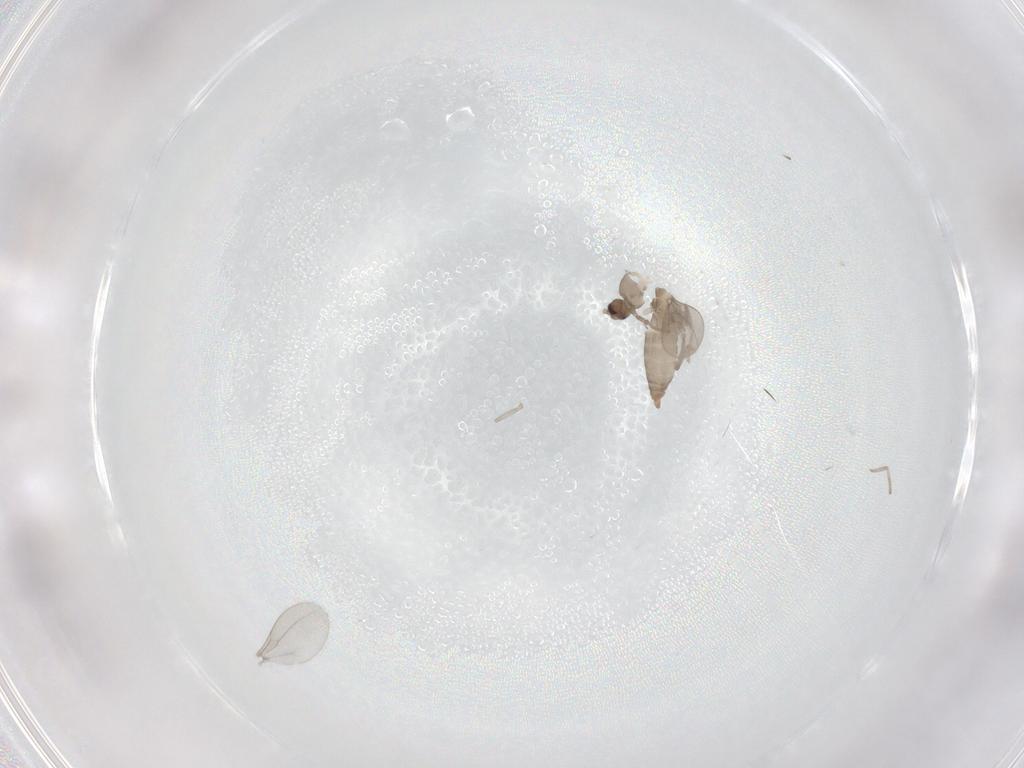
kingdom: Animalia
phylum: Arthropoda
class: Insecta
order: Diptera
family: Cecidomyiidae
